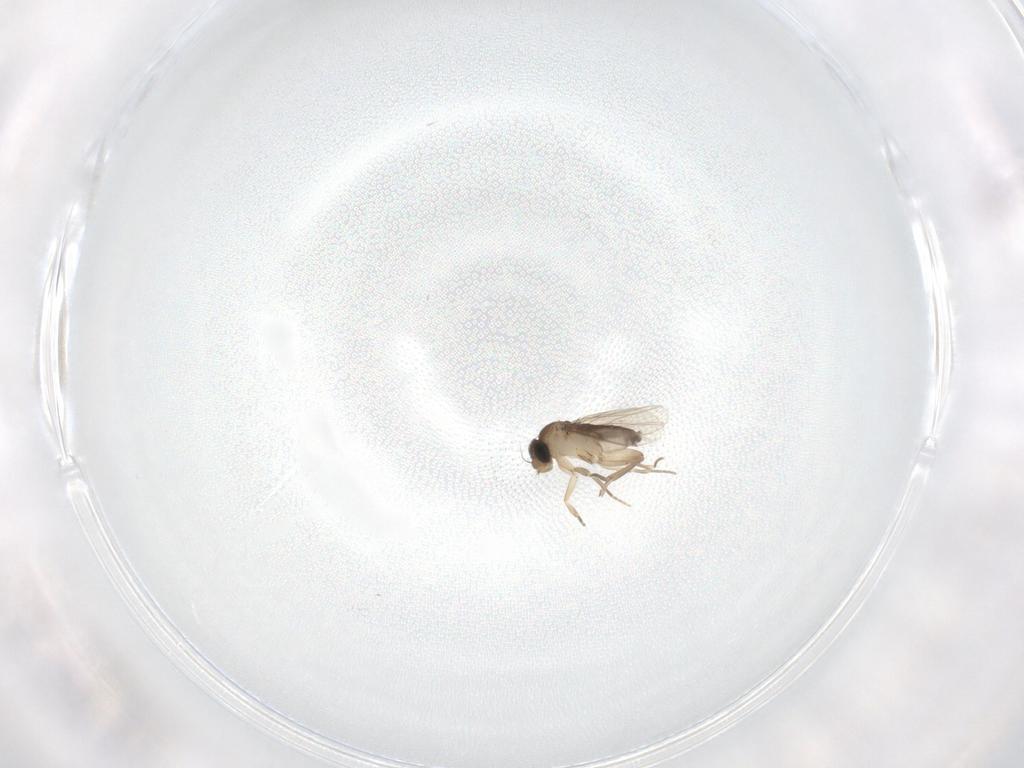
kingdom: Animalia
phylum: Arthropoda
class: Insecta
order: Diptera
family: Phoridae
